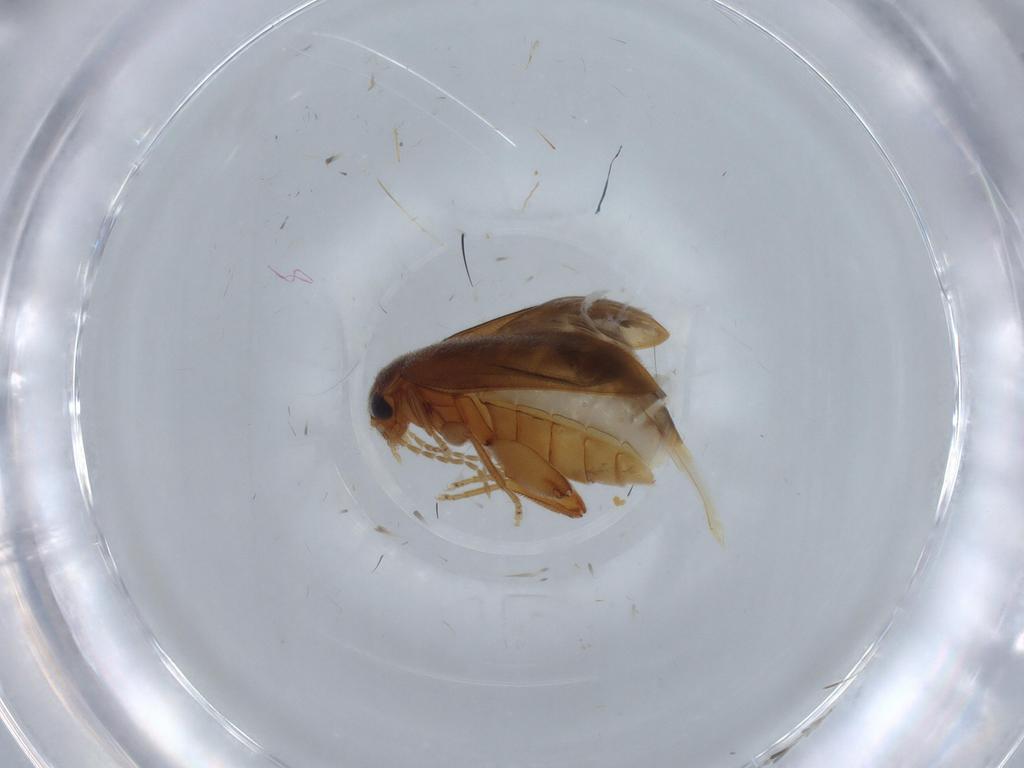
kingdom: Animalia
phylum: Arthropoda
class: Insecta
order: Coleoptera
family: Scirtidae
